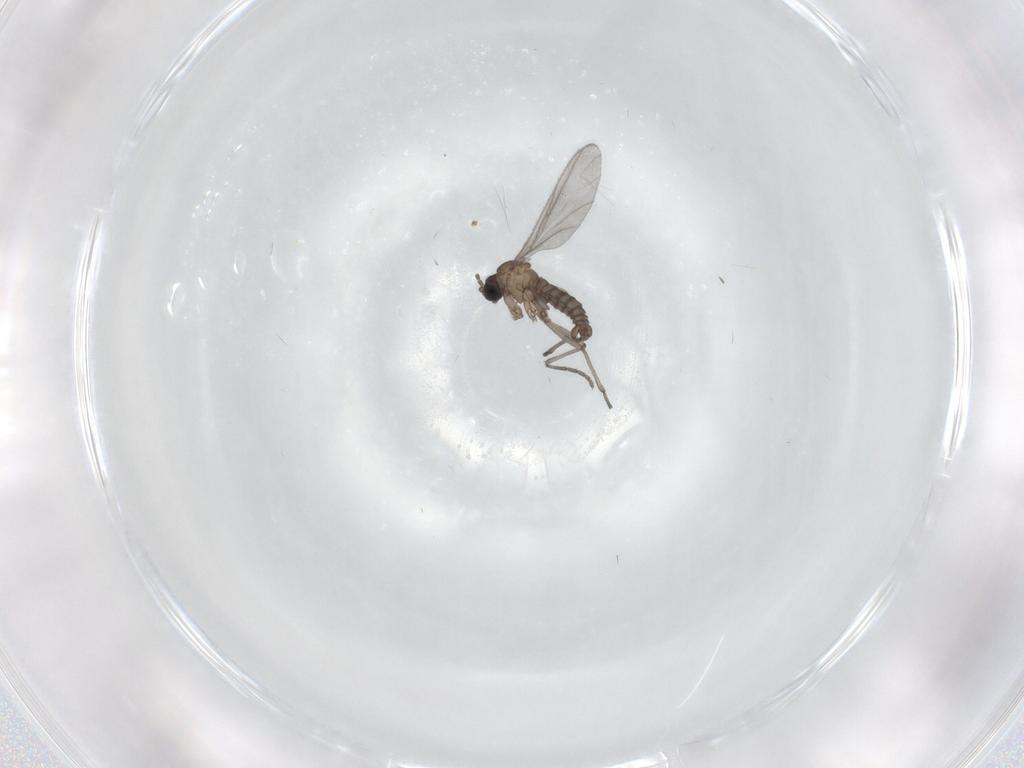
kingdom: Animalia
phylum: Arthropoda
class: Insecta
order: Diptera
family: Sciaridae
